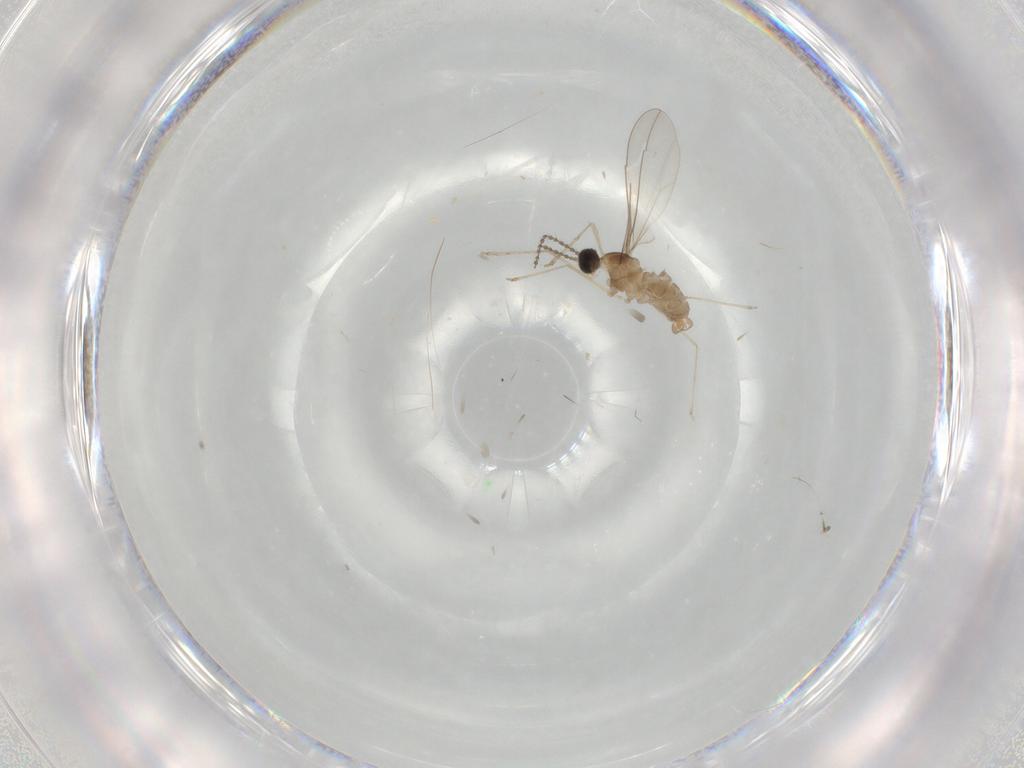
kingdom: Animalia
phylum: Arthropoda
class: Insecta
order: Diptera
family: Cecidomyiidae
